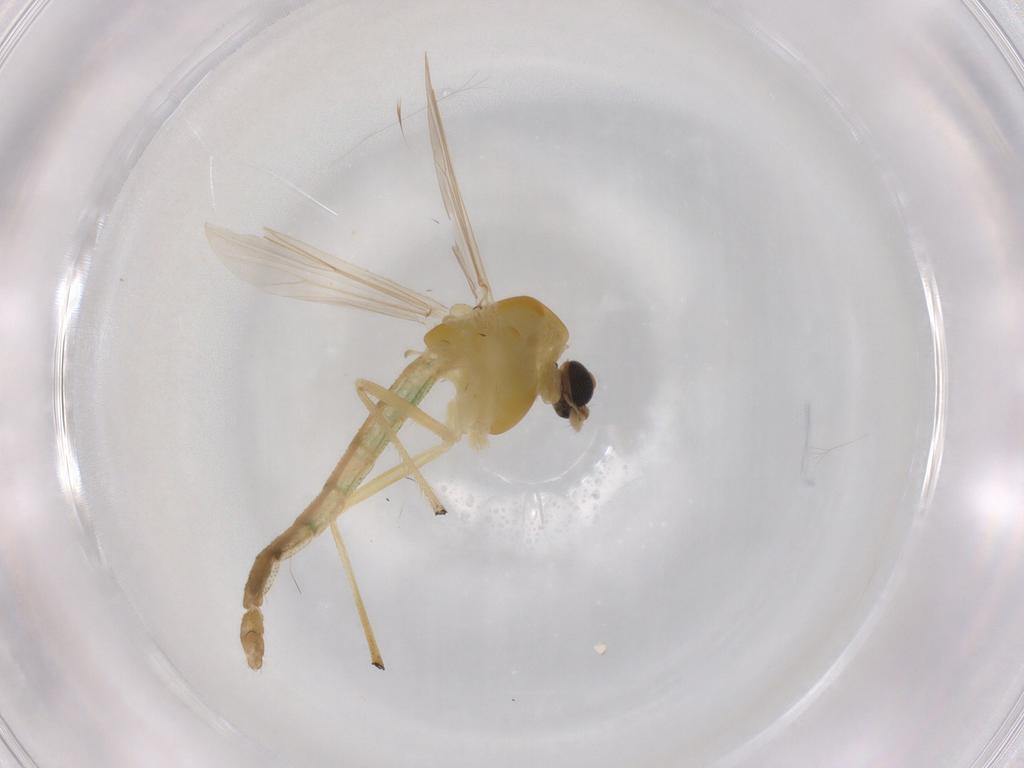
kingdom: Animalia
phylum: Arthropoda
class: Insecta
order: Diptera
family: Chironomidae
